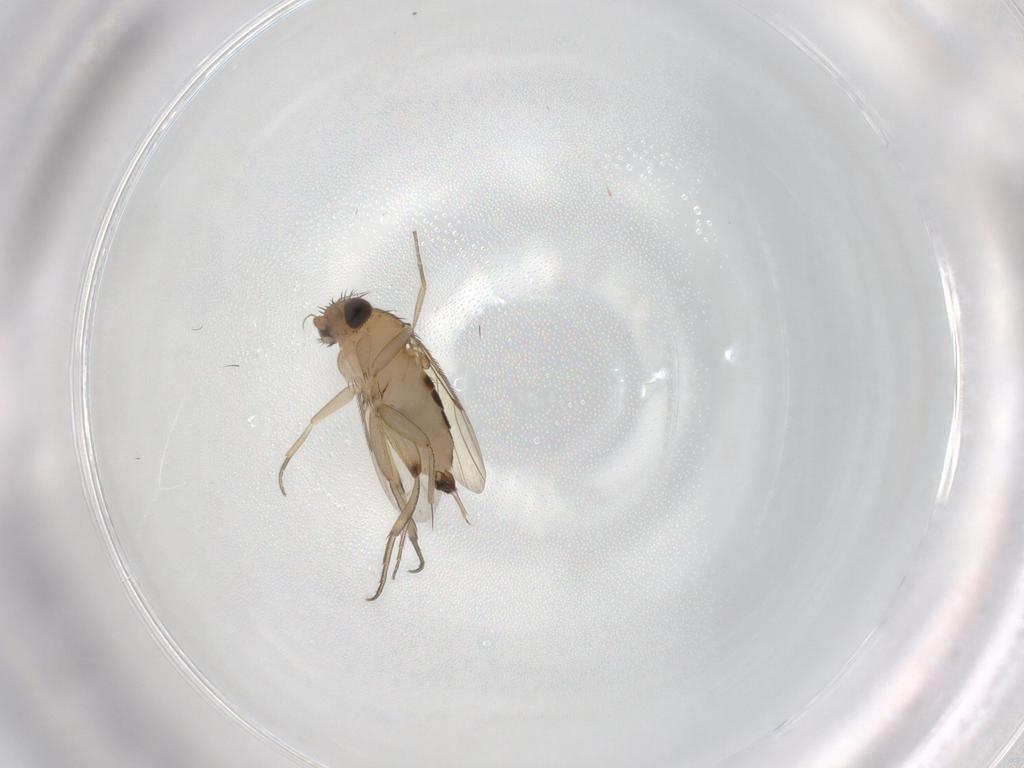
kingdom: Animalia
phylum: Arthropoda
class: Insecta
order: Diptera
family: Phoridae
